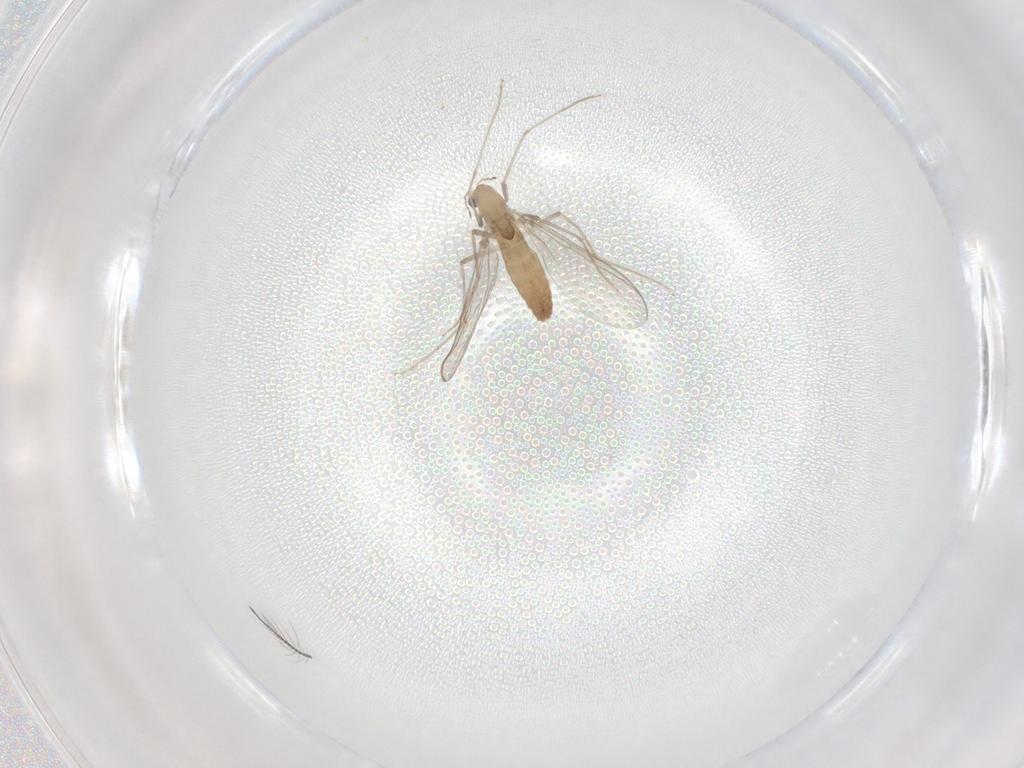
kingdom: Animalia
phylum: Arthropoda
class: Insecta
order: Diptera
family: Chironomidae
